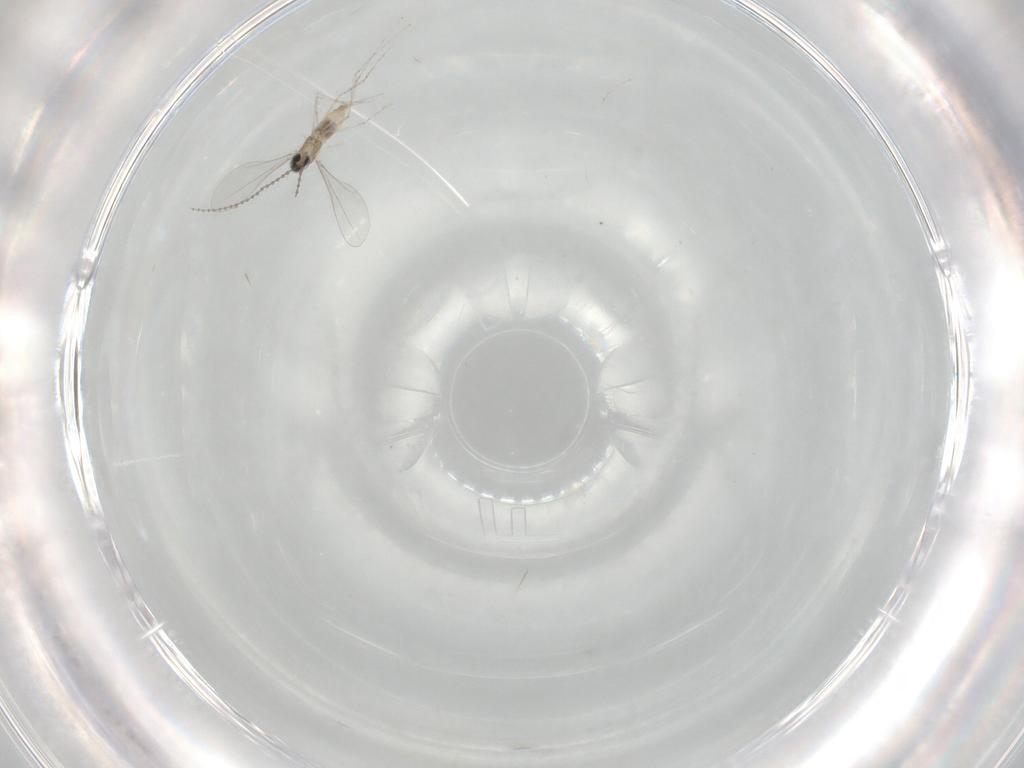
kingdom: Animalia
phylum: Arthropoda
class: Insecta
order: Diptera
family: Cecidomyiidae
